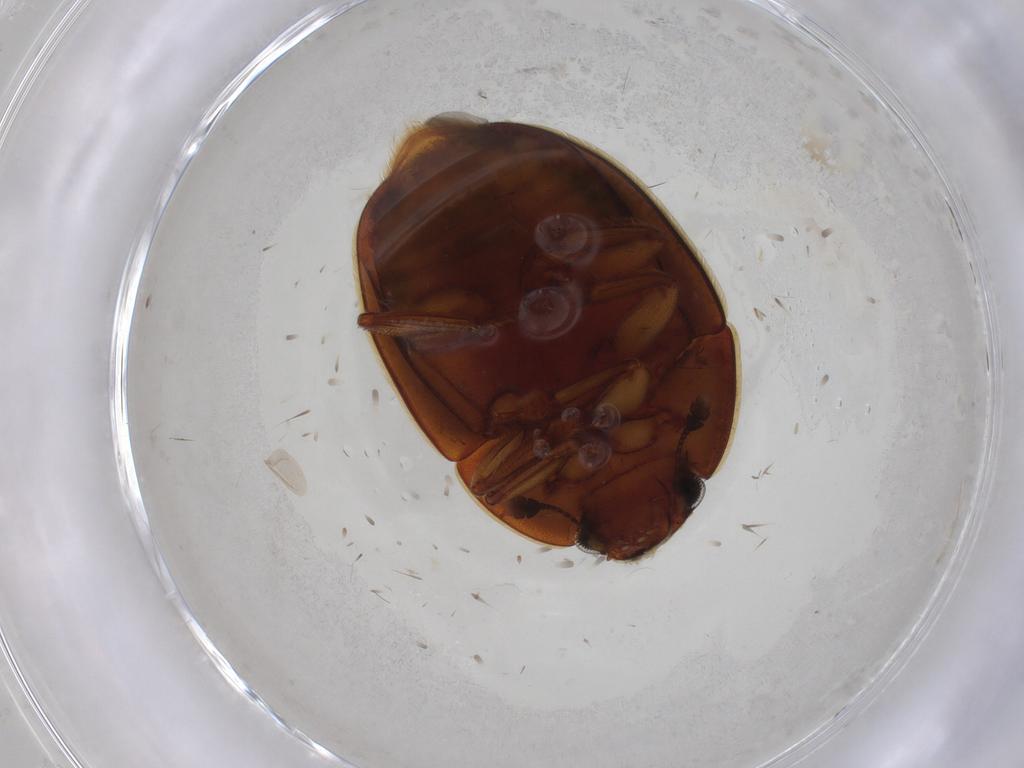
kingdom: Animalia
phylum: Arthropoda
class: Insecta
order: Coleoptera
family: Nitidulidae
